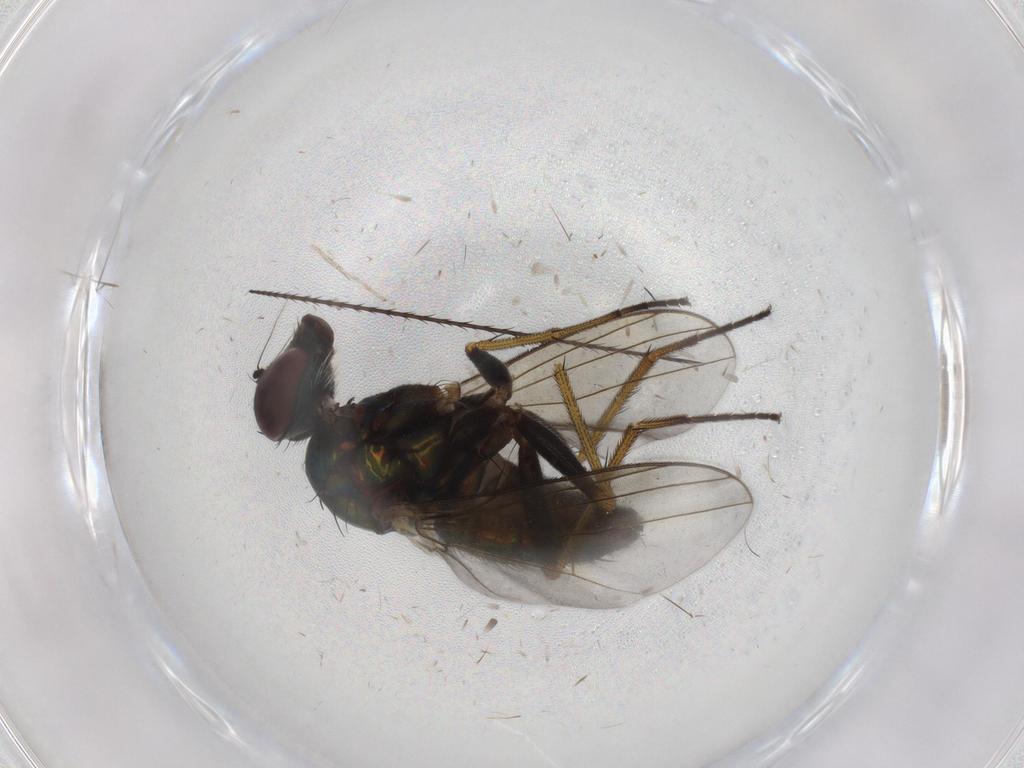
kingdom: Animalia
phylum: Arthropoda
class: Insecta
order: Diptera
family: Dolichopodidae
